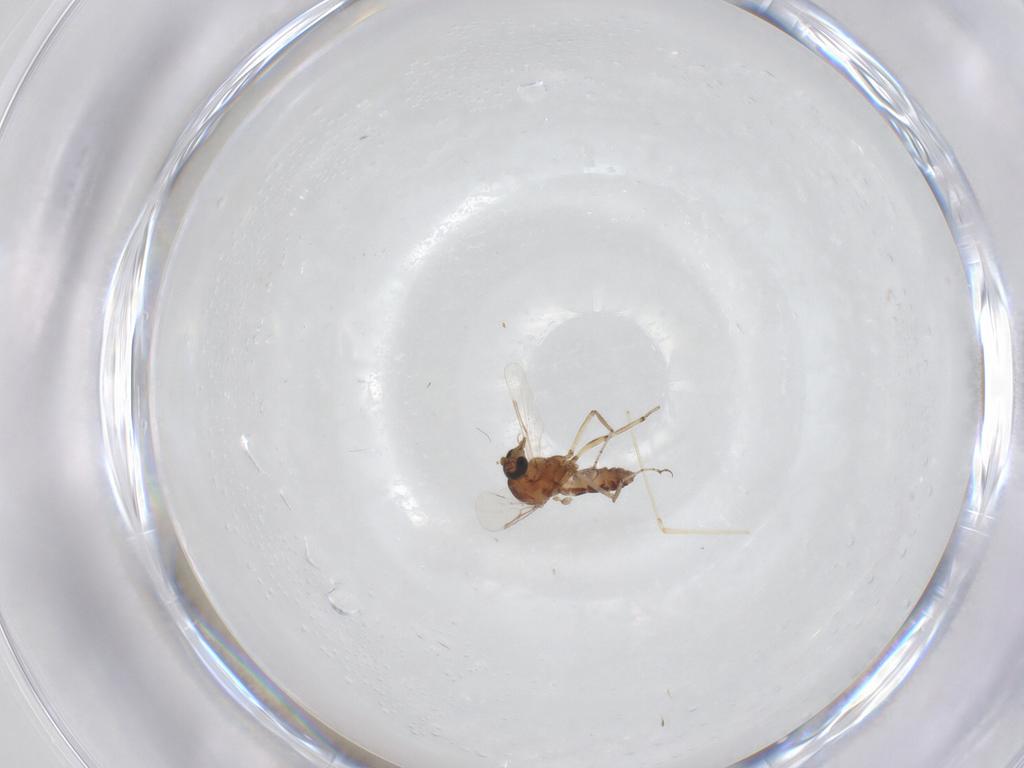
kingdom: Animalia
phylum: Arthropoda
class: Insecta
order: Diptera
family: Ceratopogonidae
